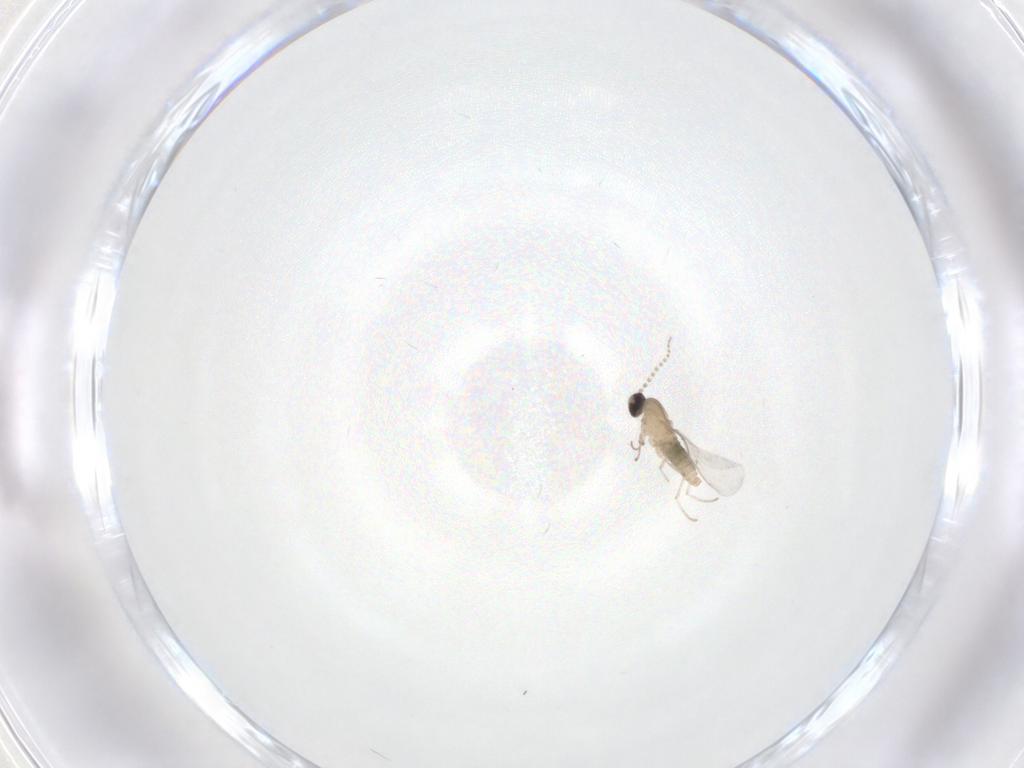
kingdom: Animalia
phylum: Arthropoda
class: Insecta
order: Diptera
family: Cecidomyiidae
